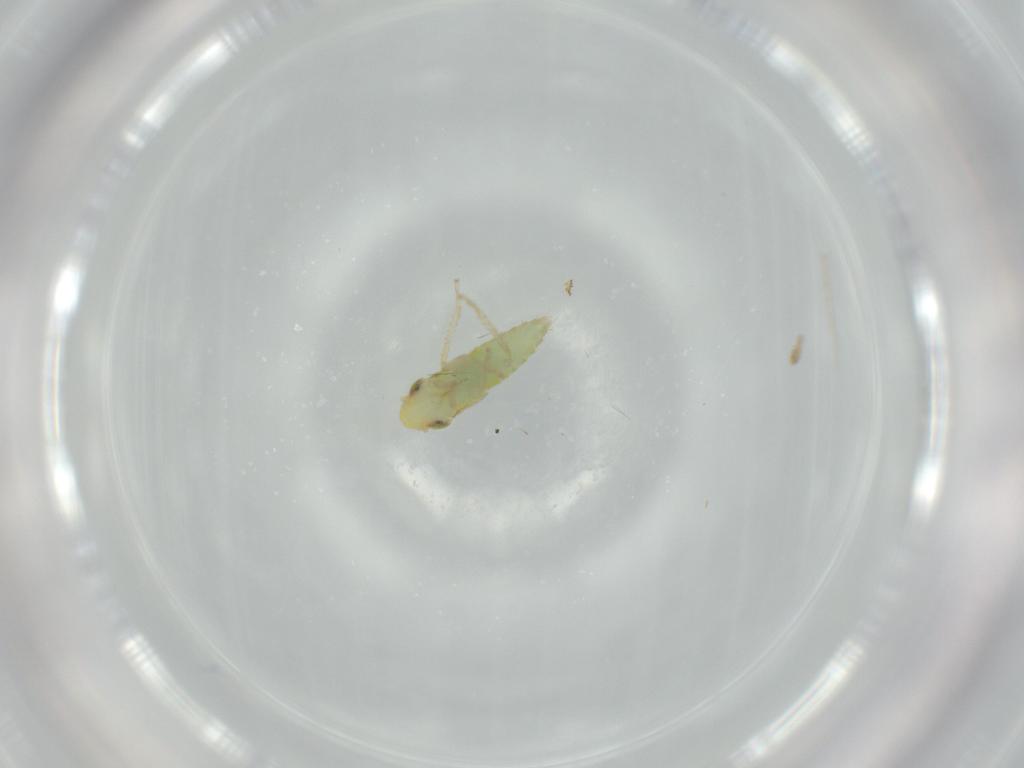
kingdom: Animalia
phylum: Arthropoda
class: Insecta
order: Hemiptera
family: Cicadellidae
